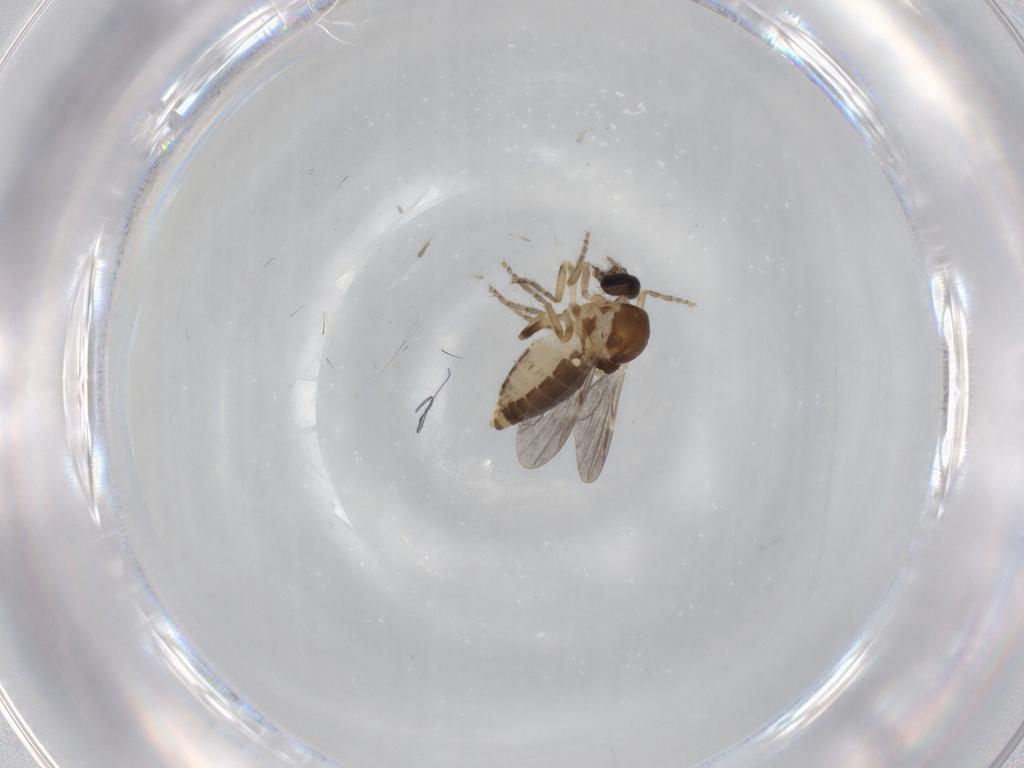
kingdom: Animalia
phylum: Arthropoda
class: Insecta
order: Diptera
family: Ceratopogonidae
